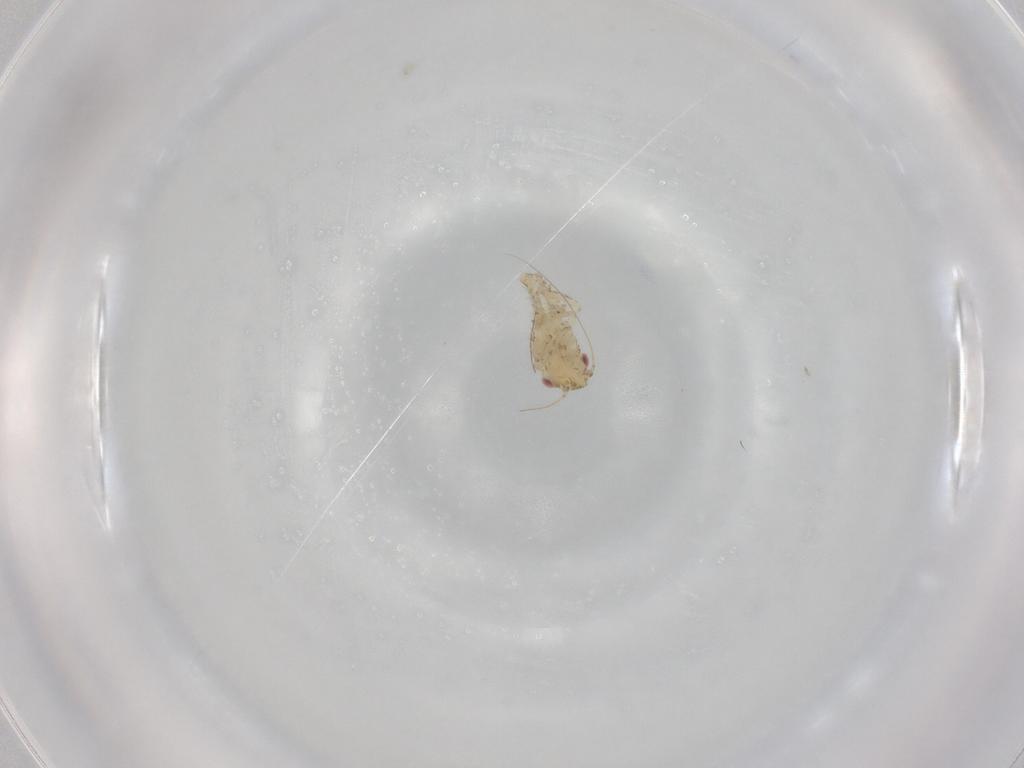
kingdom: Animalia
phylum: Arthropoda
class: Insecta
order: Hemiptera
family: Cicadellidae
